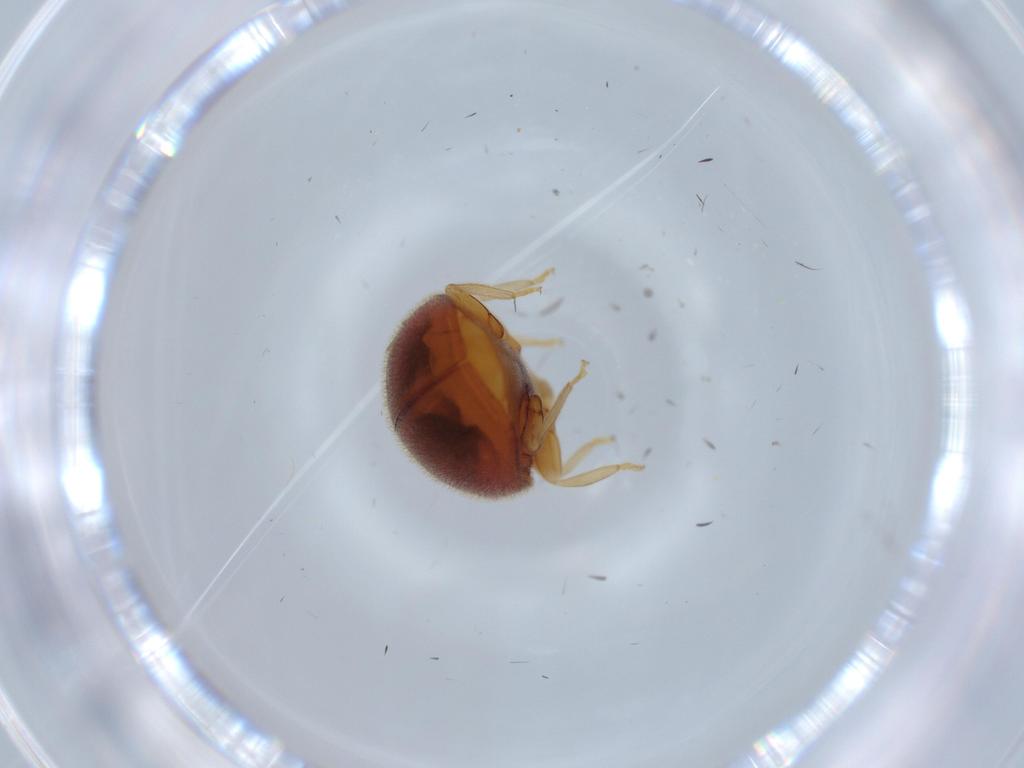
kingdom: Animalia
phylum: Arthropoda
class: Insecta
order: Coleoptera
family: Coccinellidae
